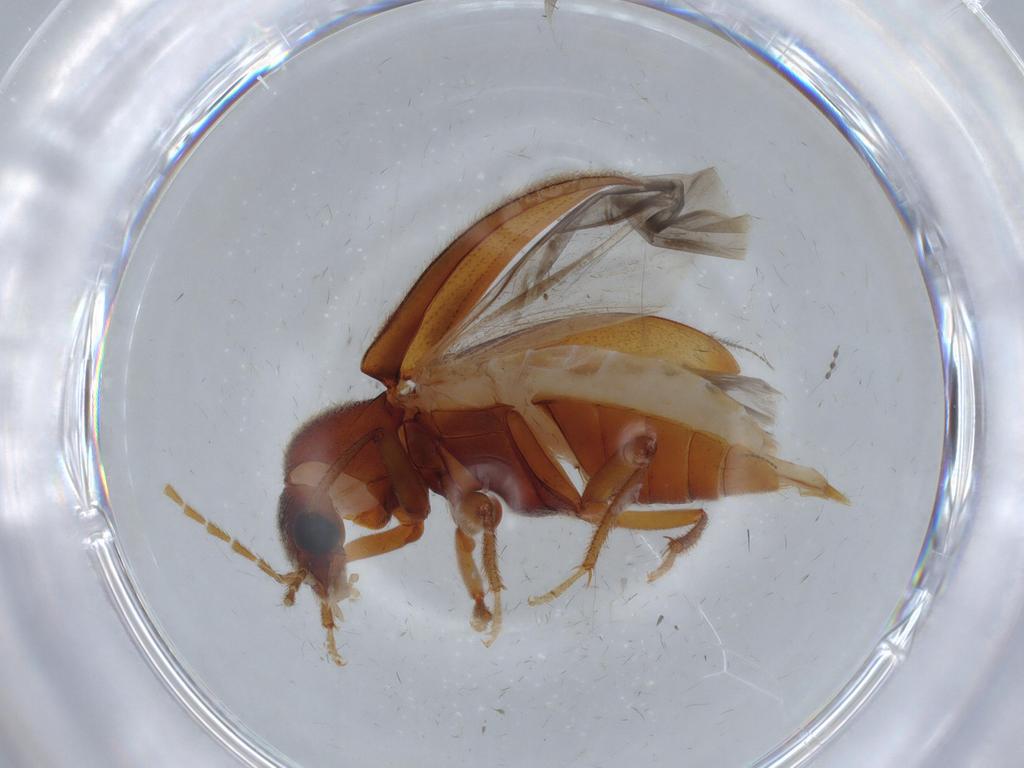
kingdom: Animalia
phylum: Arthropoda
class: Insecta
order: Coleoptera
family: Ptilodactylidae
